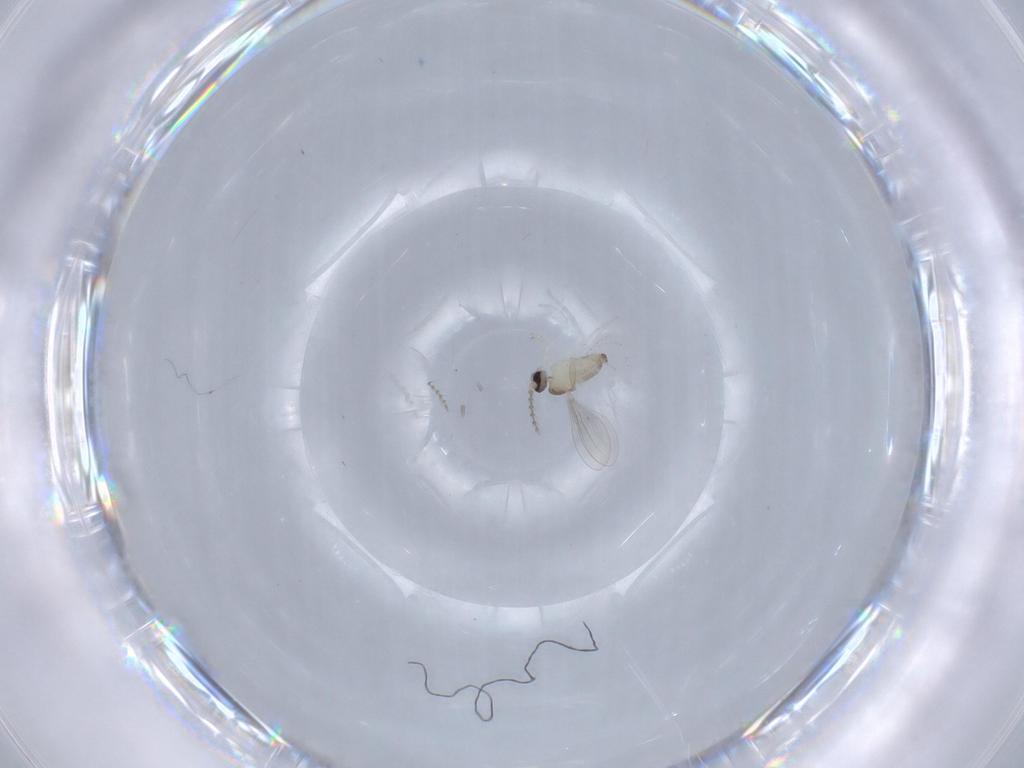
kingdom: Animalia
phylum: Arthropoda
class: Insecta
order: Diptera
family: Cecidomyiidae
